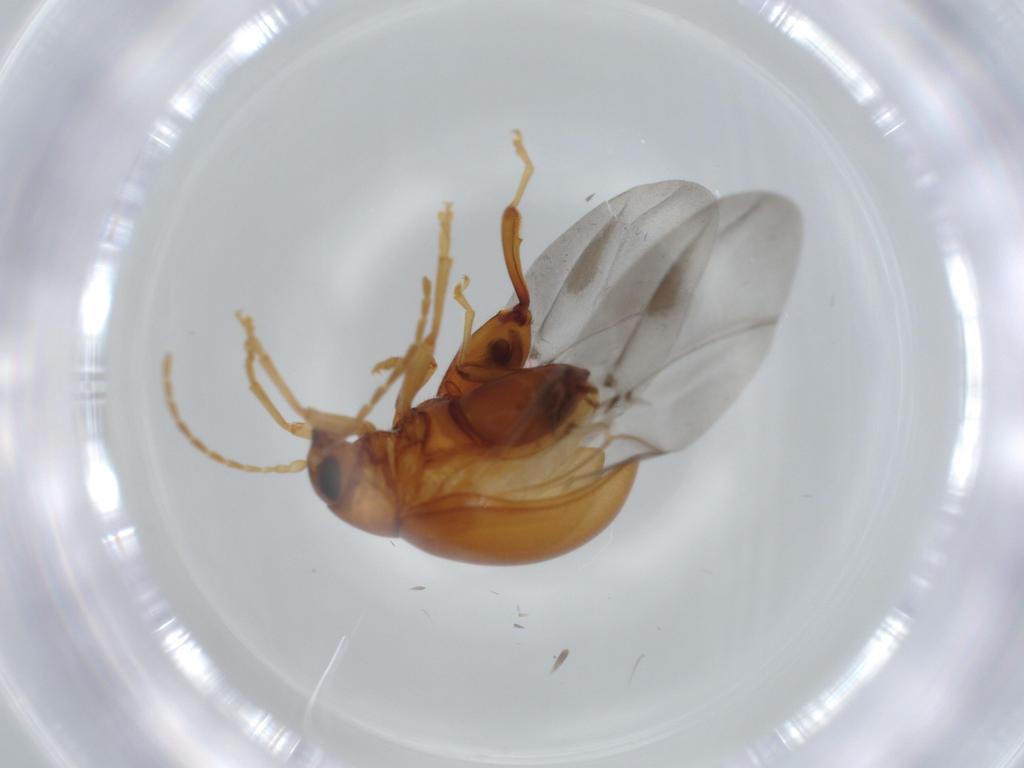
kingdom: Animalia
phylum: Arthropoda
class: Insecta
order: Coleoptera
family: Chrysomelidae
